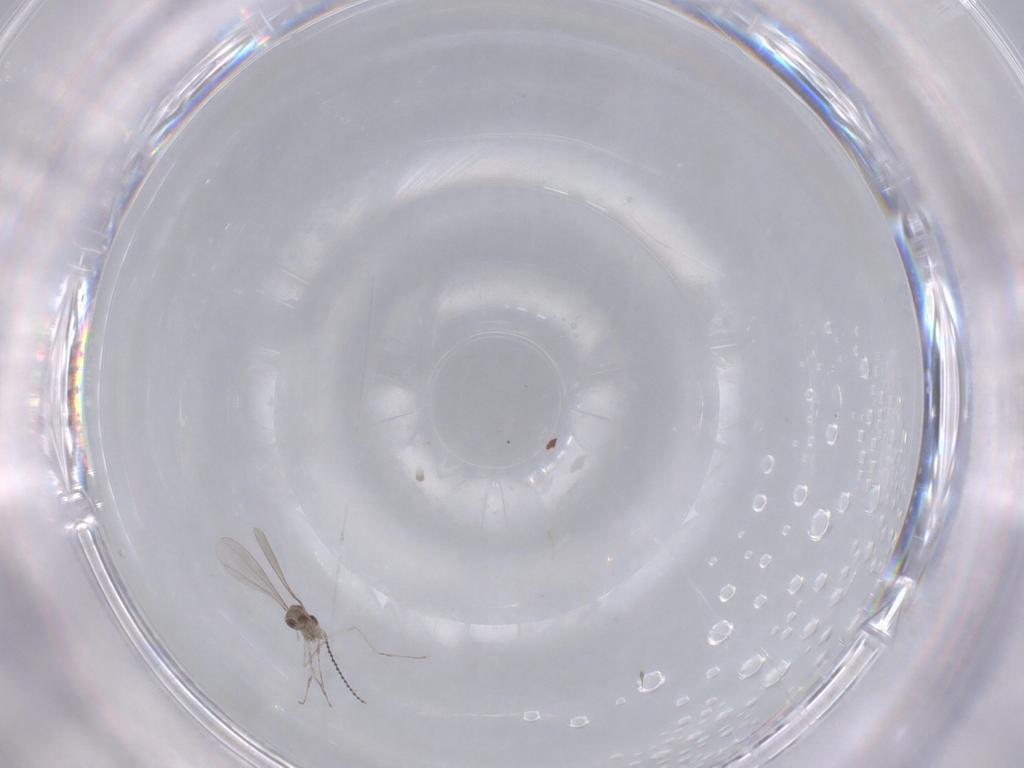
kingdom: Animalia
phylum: Arthropoda
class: Insecta
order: Diptera
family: Cecidomyiidae
